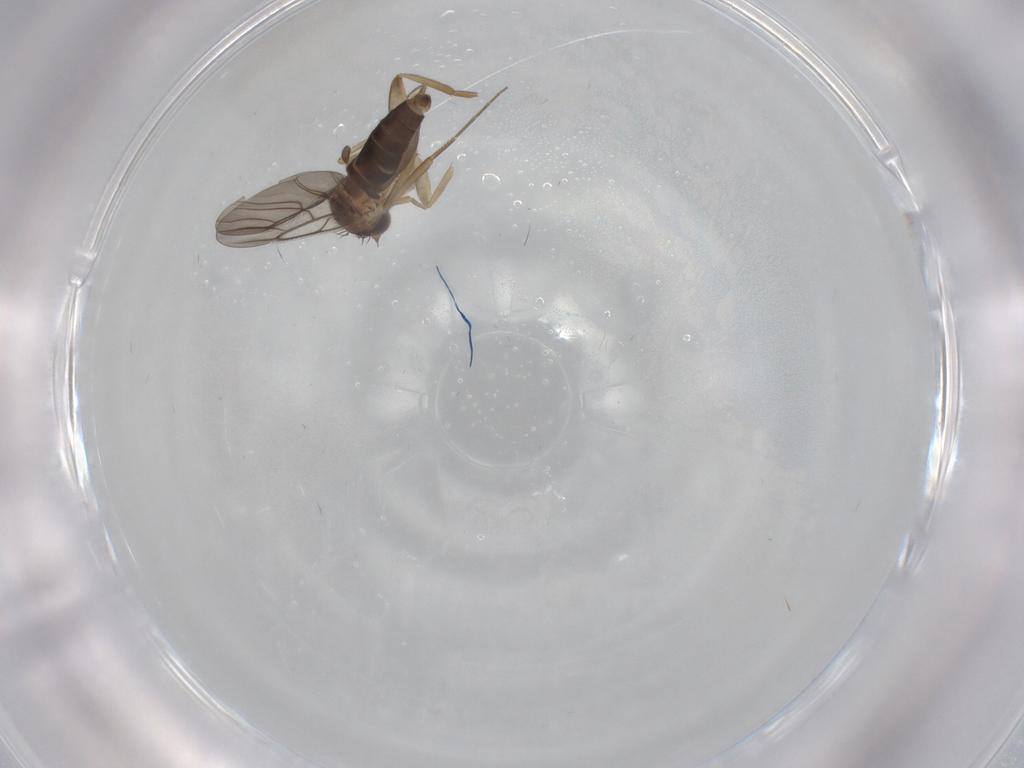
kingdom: Animalia
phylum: Arthropoda
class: Insecta
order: Diptera
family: Phoridae
